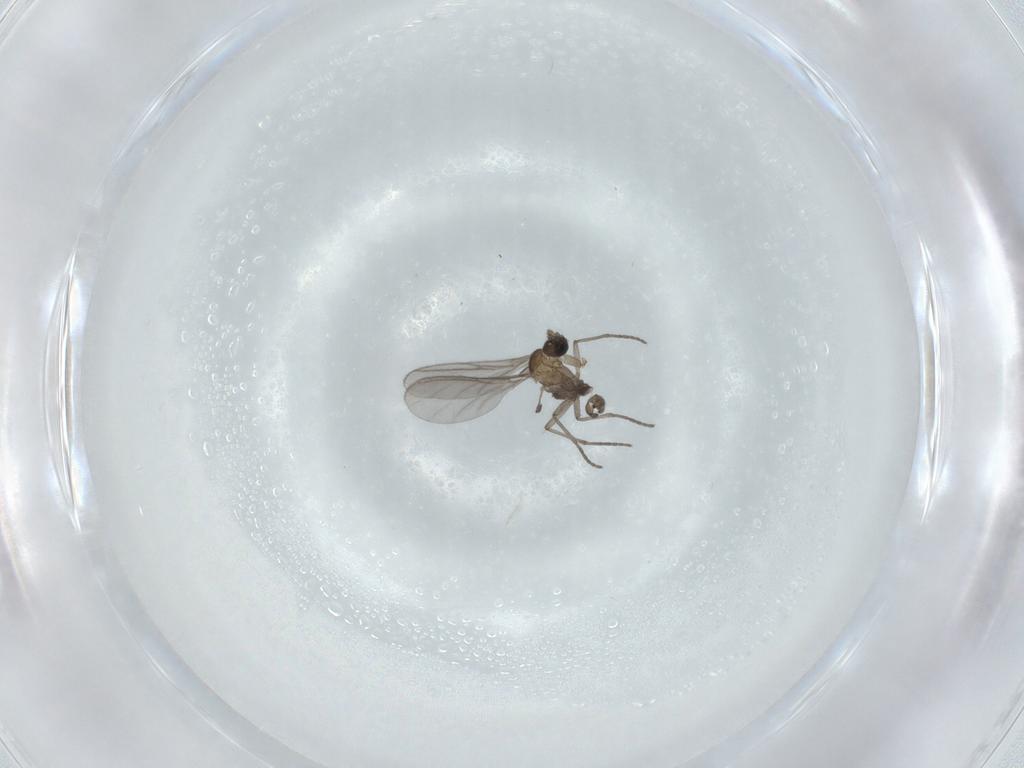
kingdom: Animalia
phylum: Arthropoda
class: Insecta
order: Diptera
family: Sciaridae
